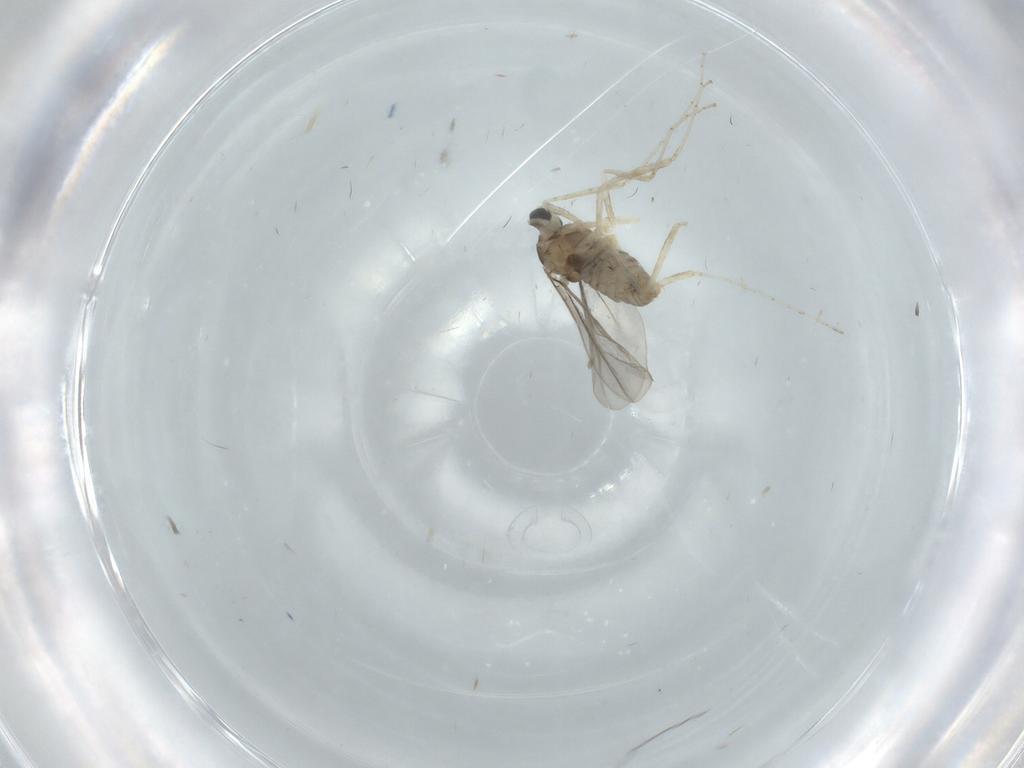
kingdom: Animalia
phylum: Arthropoda
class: Insecta
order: Diptera
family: Cecidomyiidae
